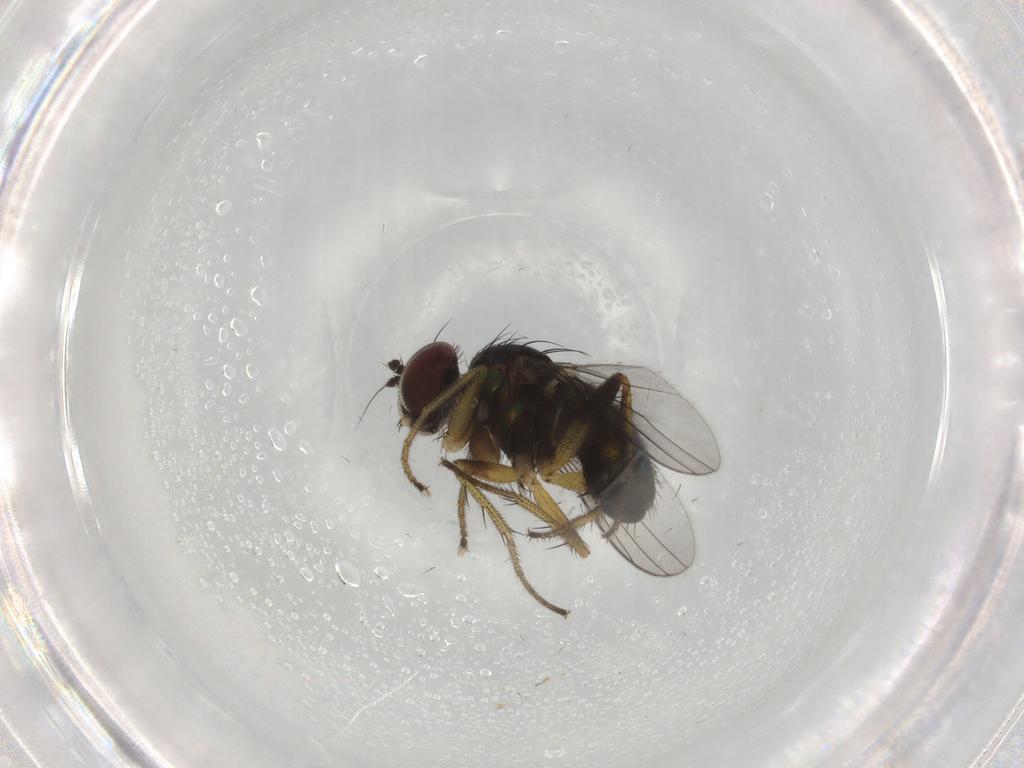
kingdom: Animalia
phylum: Arthropoda
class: Insecta
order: Diptera
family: Dolichopodidae
